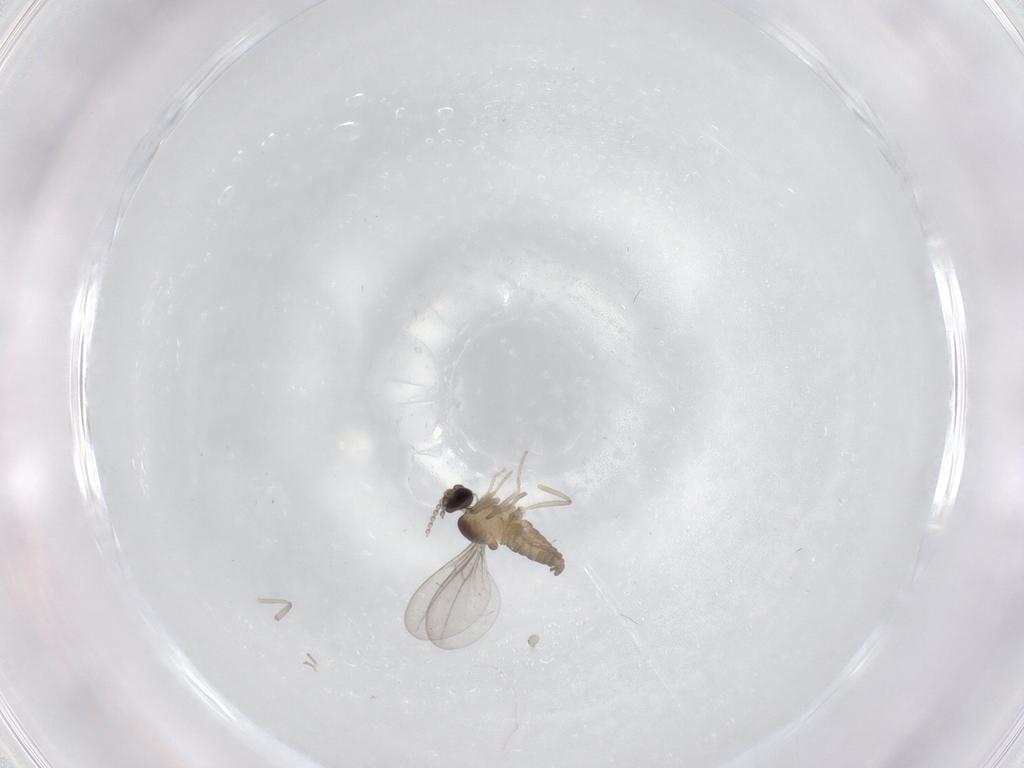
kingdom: Animalia
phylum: Arthropoda
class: Insecta
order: Diptera
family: Cecidomyiidae
